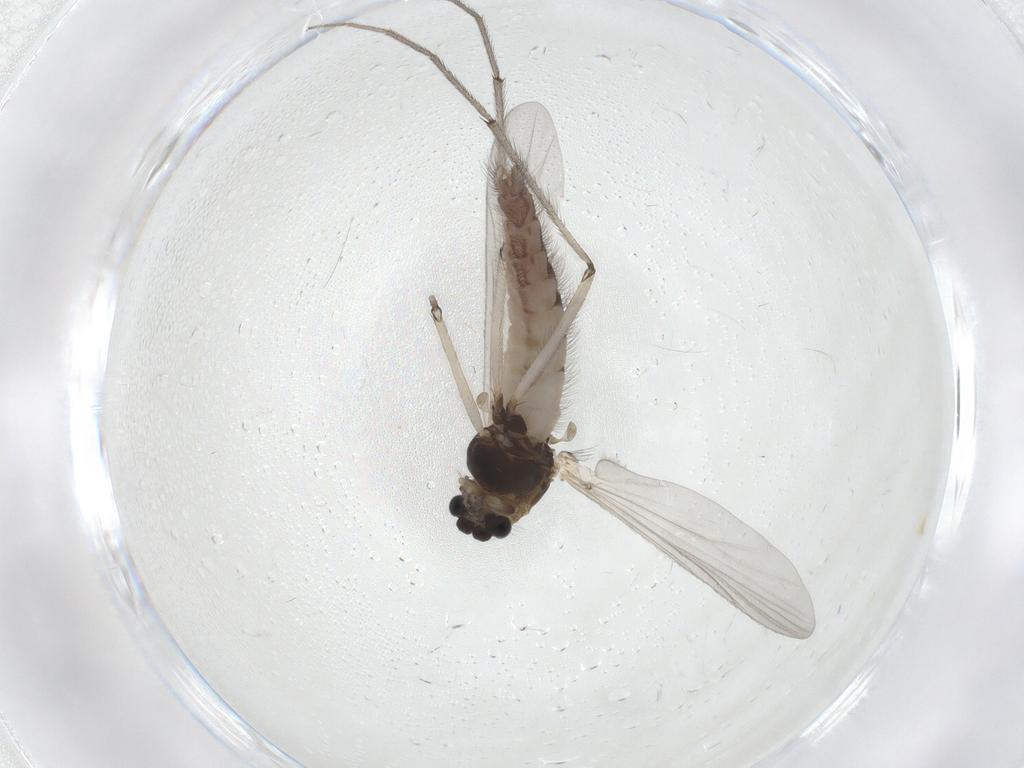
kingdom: Animalia
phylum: Arthropoda
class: Insecta
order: Diptera
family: Chironomidae
